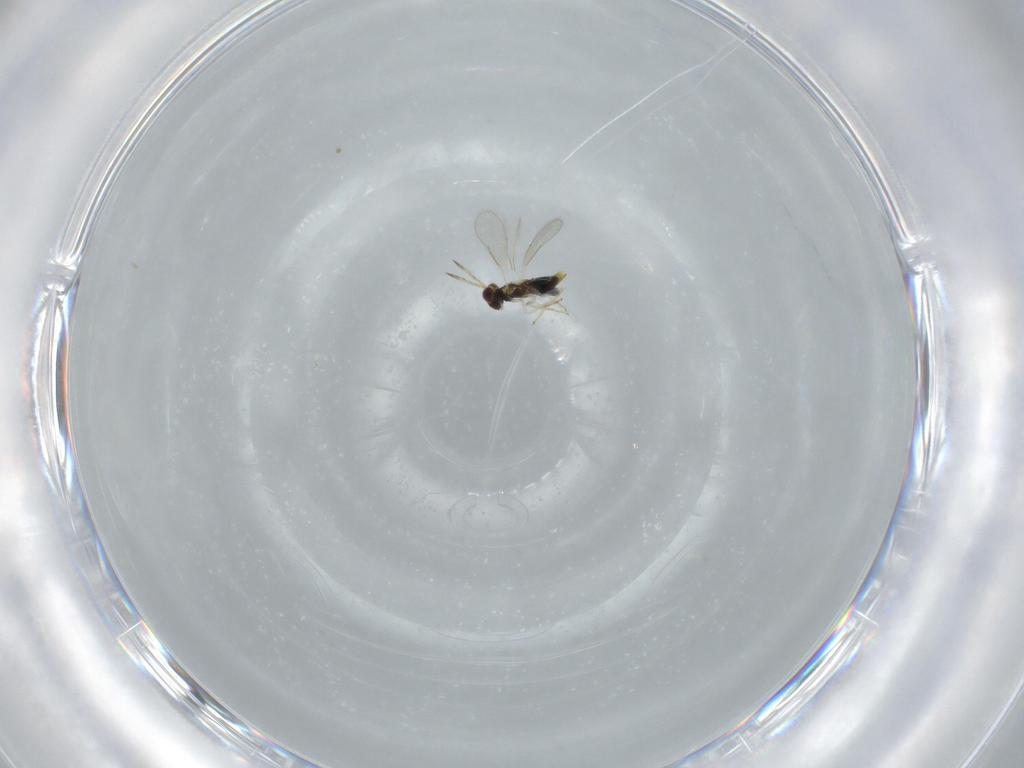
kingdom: Animalia
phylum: Arthropoda
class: Insecta
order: Hymenoptera
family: Aphelinidae
